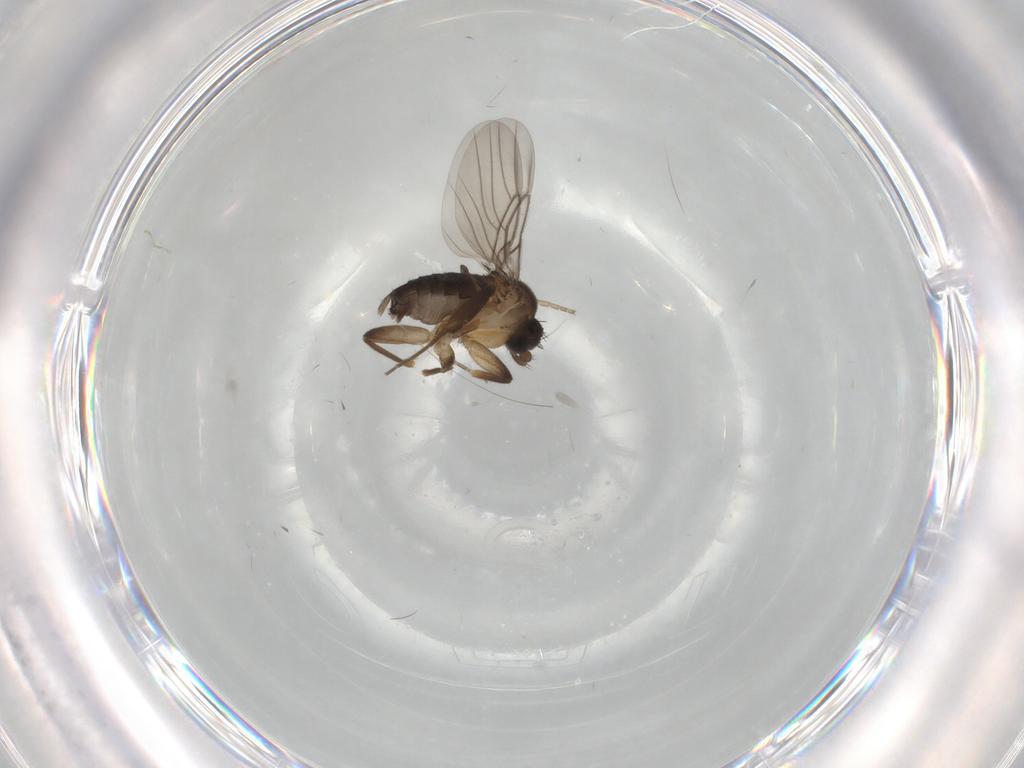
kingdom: Animalia
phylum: Arthropoda
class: Insecta
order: Diptera
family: Phoridae
